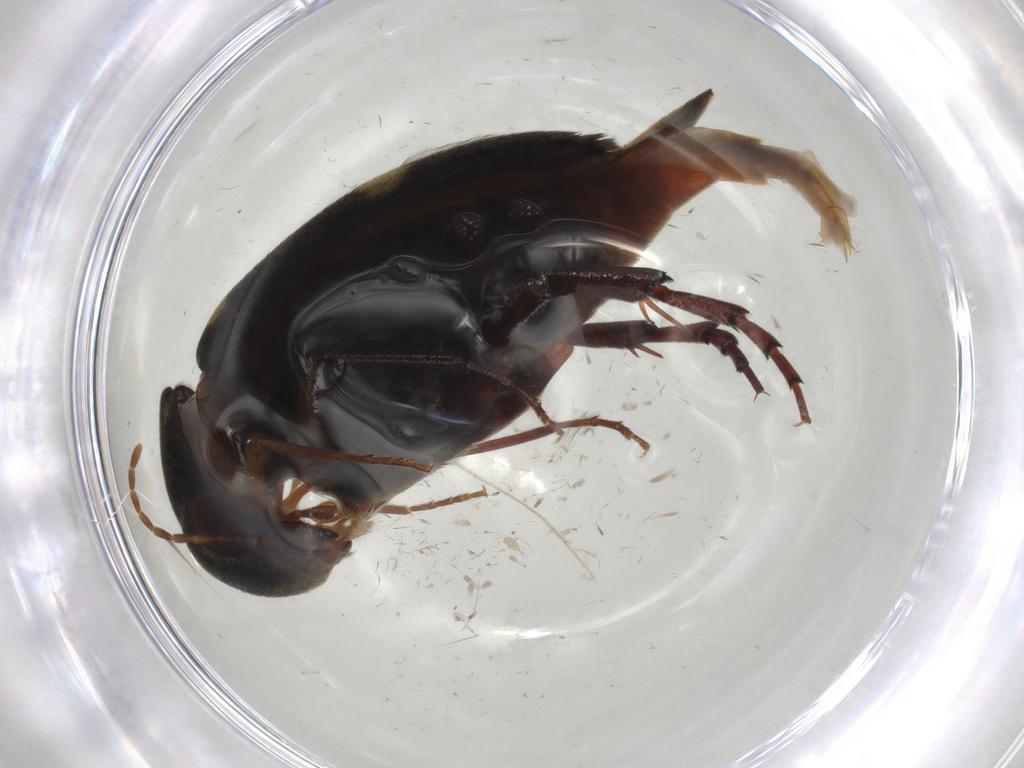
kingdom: Animalia
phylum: Arthropoda
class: Insecta
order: Coleoptera
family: Mordellidae
